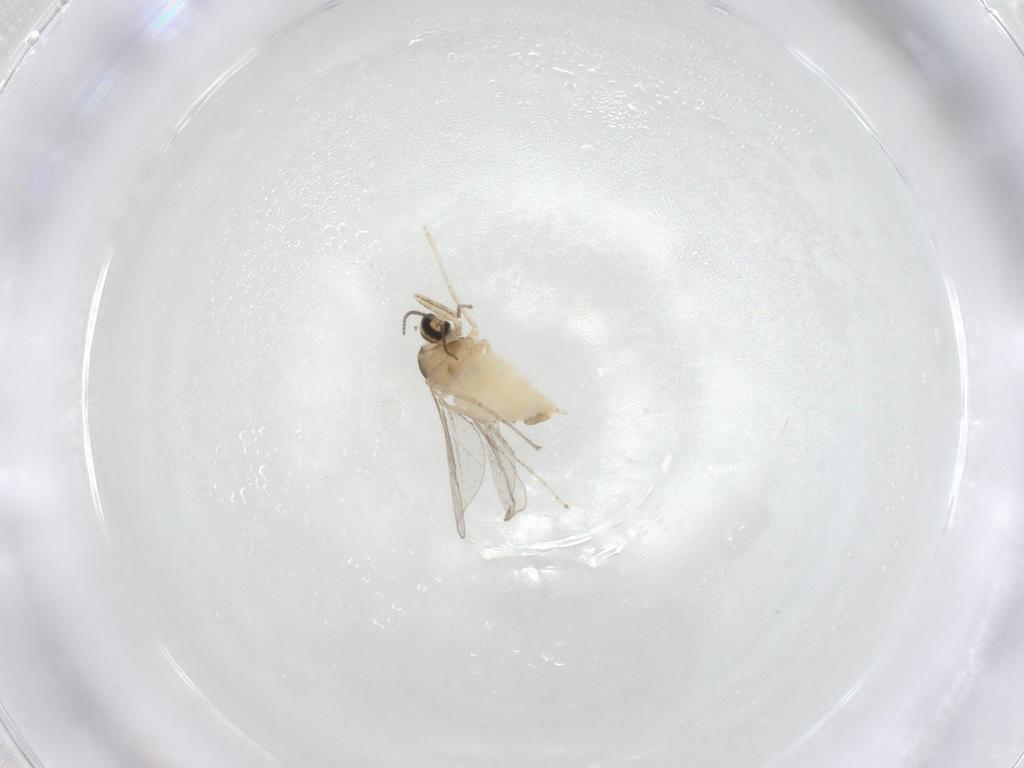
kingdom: Animalia
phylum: Arthropoda
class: Insecta
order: Diptera
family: Cecidomyiidae
